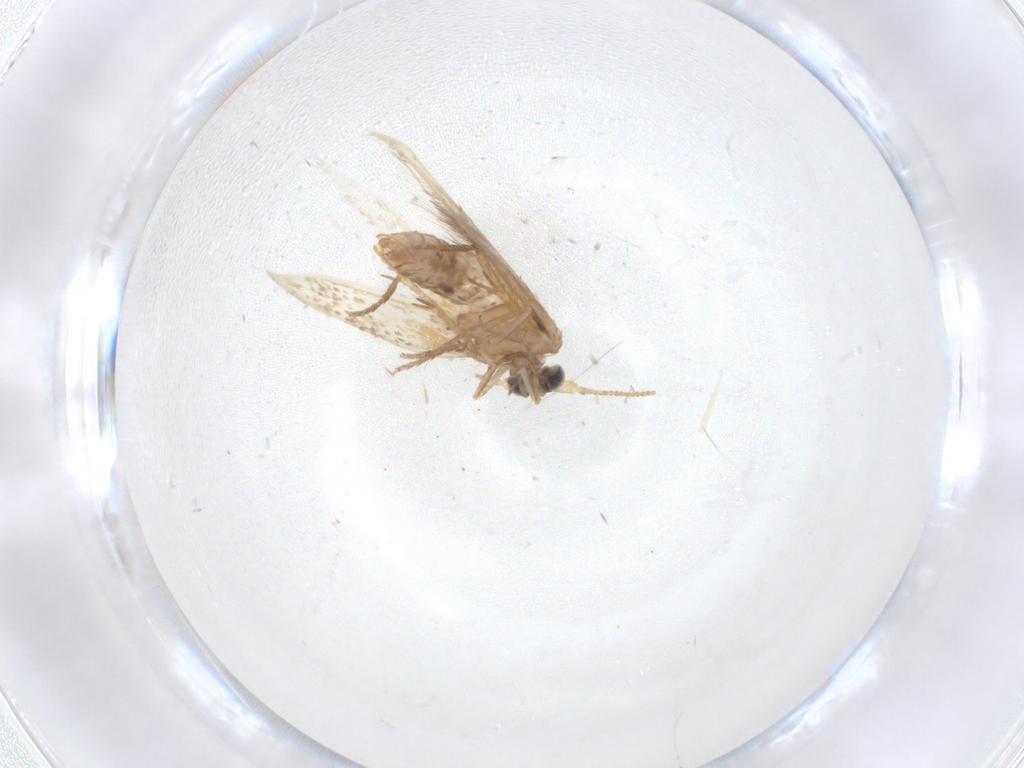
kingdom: Animalia
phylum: Arthropoda
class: Insecta
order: Lepidoptera
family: Nepticulidae
